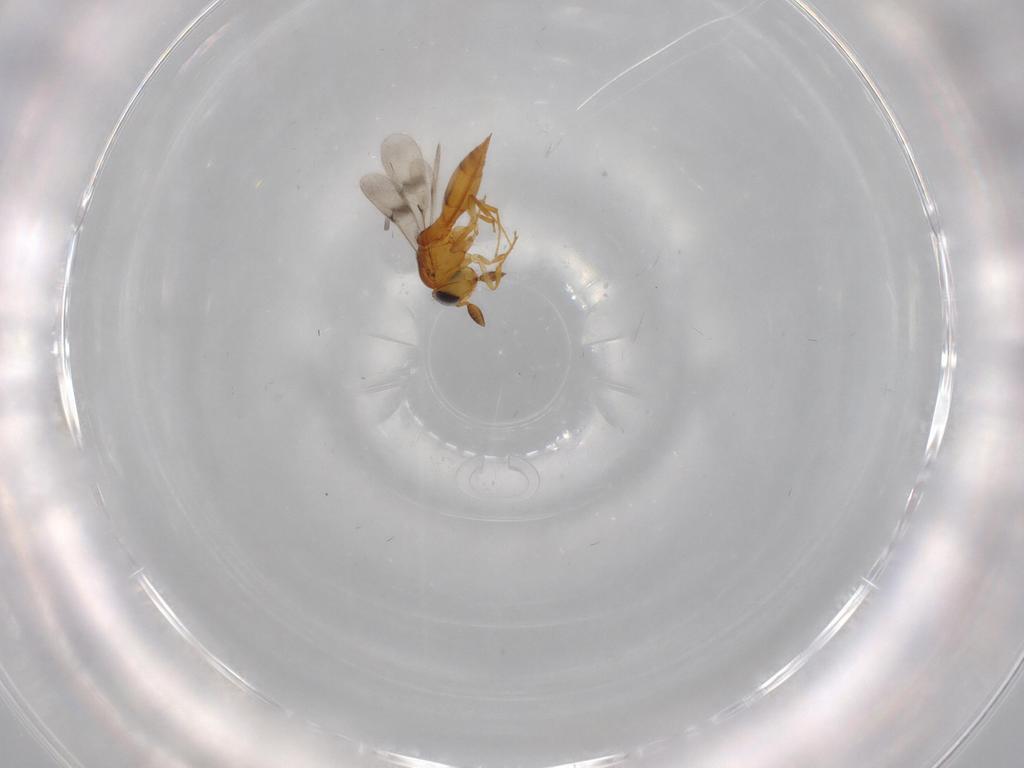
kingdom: Animalia
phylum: Arthropoda
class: Insecta
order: Hymenoptera
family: Scelionidae
